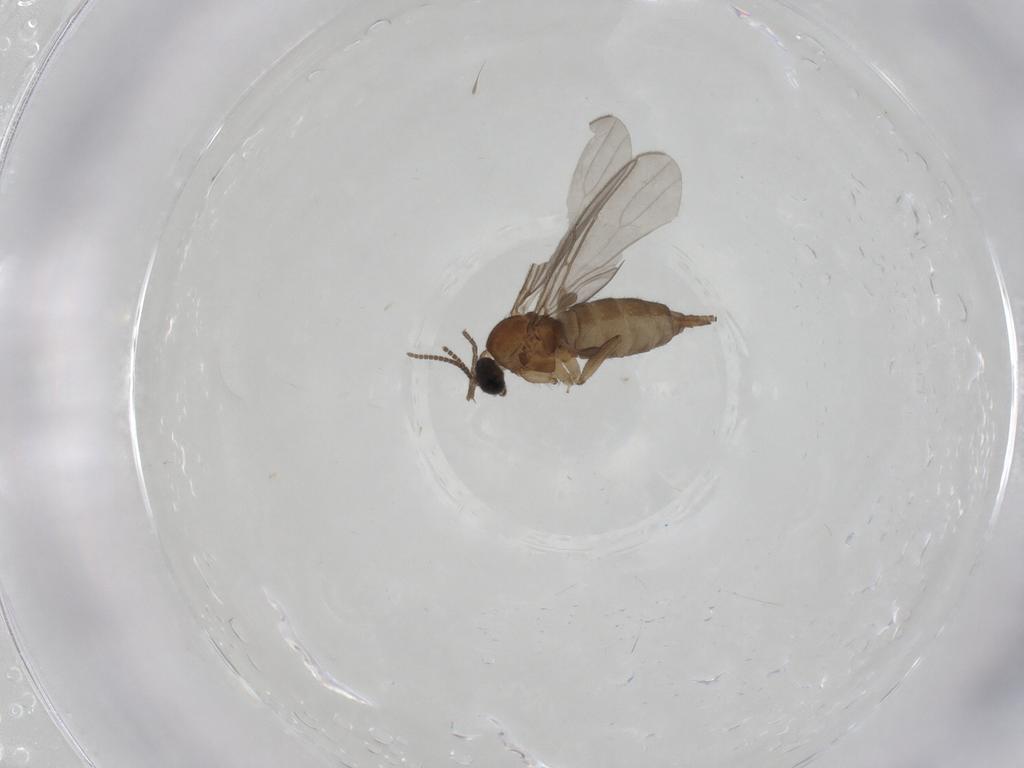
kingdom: Animalia
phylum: Arthropoda
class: Insecta
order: Diptera
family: Sciaridae
